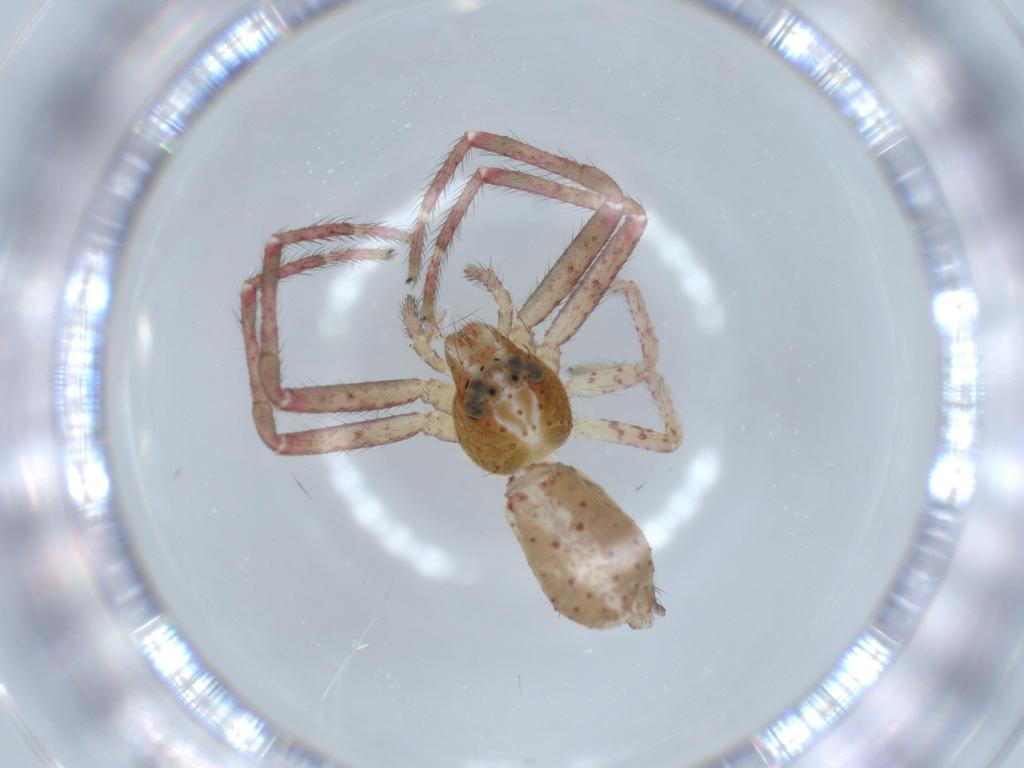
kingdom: Animalia
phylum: Arthropoda
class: Arachnida
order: Araneae
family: Thomisidae
